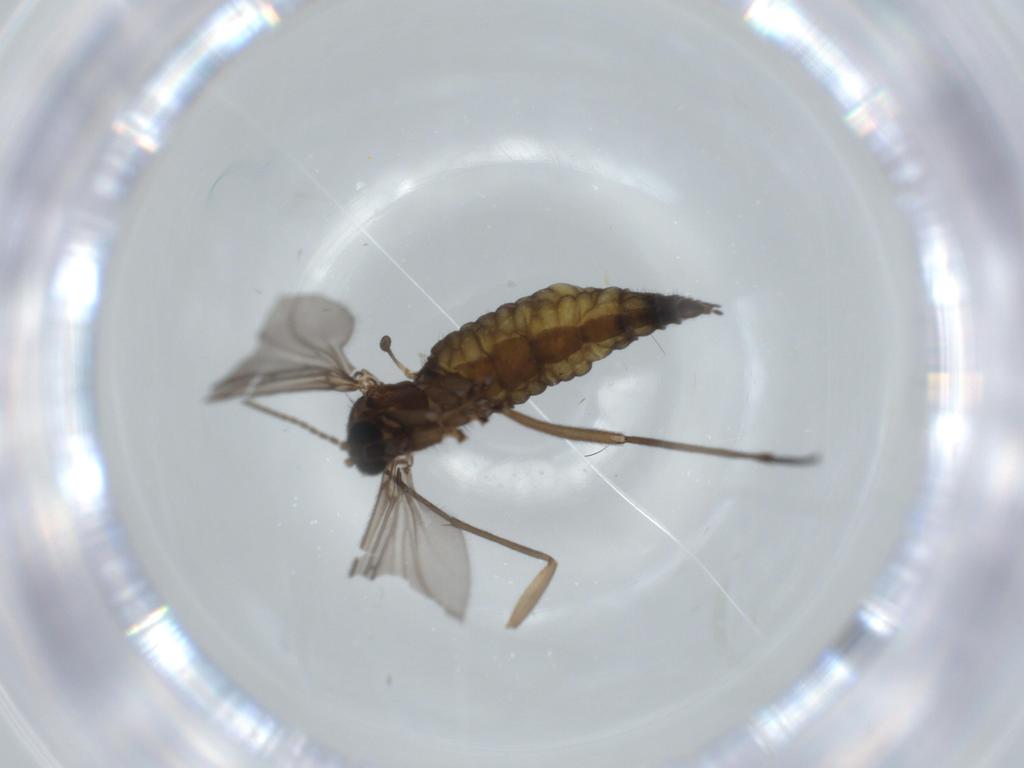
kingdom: Animalia
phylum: Arthropoda
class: Insecta
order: Diptera
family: Sciaridae
